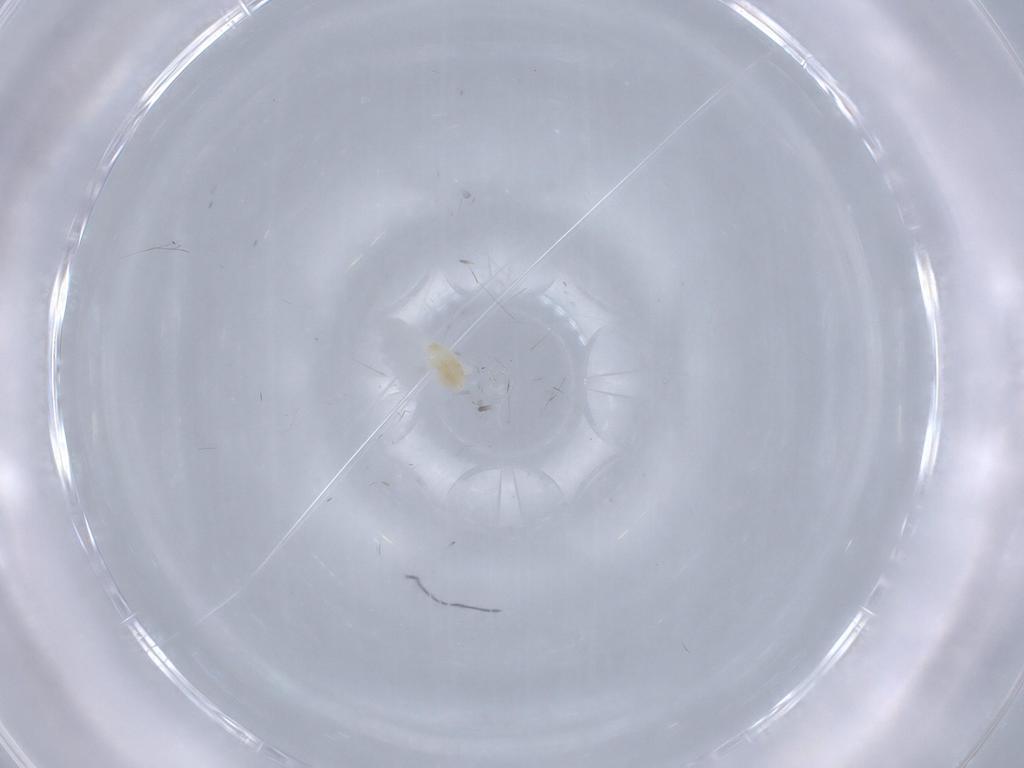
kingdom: Animalia
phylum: Arthropoda
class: Arachnida
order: Trombidiformes
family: Eupodidae
